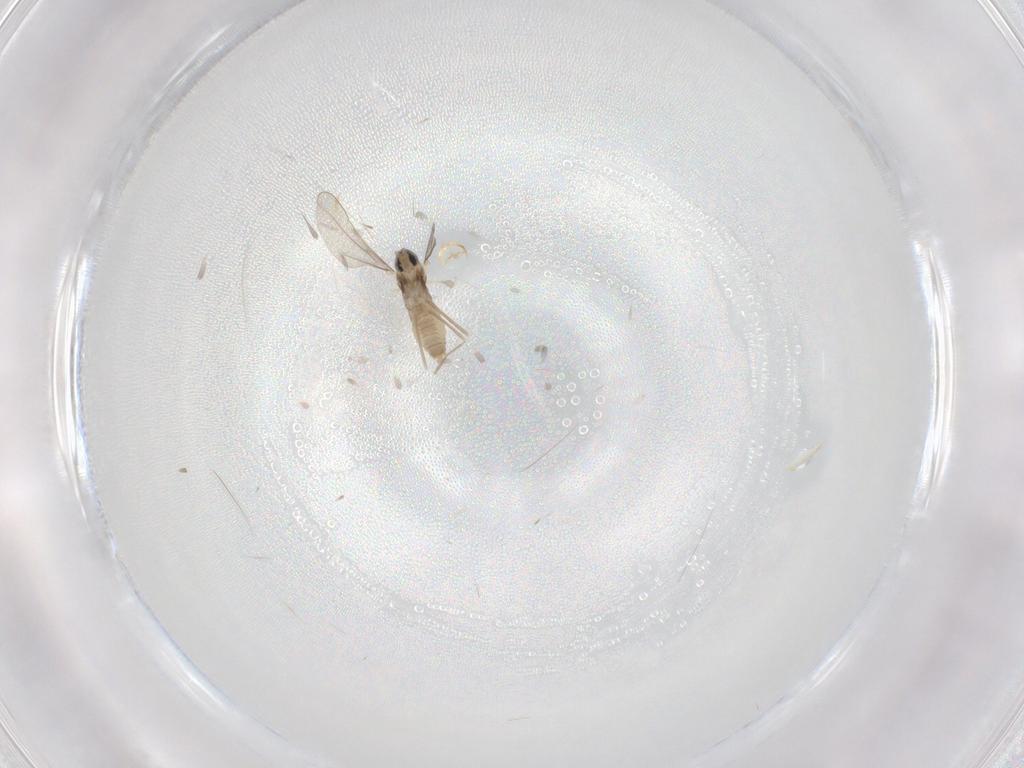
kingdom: Animalia
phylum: Arthropoda
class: Insecta
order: Diptera
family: Cecidomyiidae
